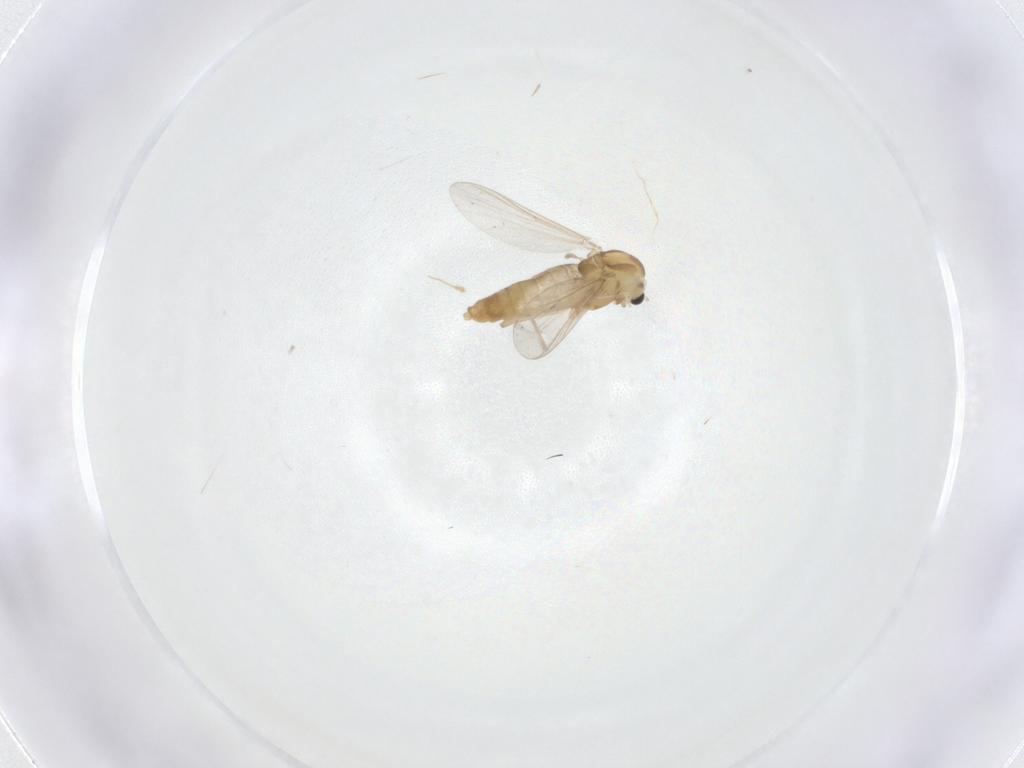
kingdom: Animalia
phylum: Arthropoda
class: Insecta
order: Diptera
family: Chironomidae
